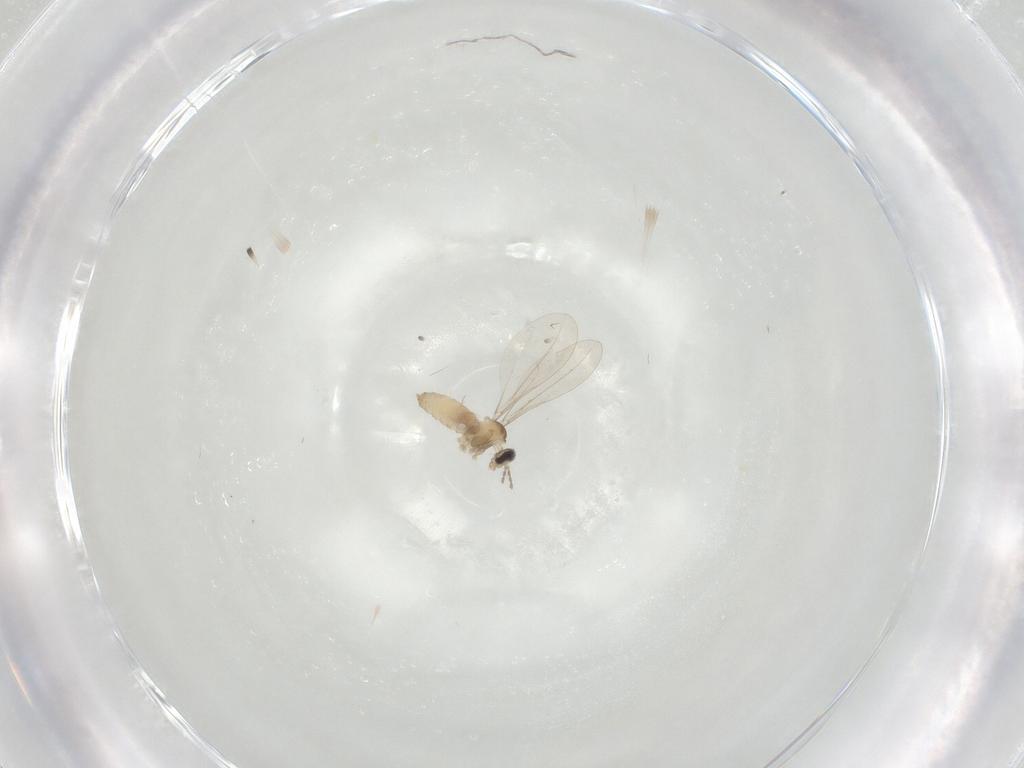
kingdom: Animalia
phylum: Arthropoda
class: Insecta
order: Diptera
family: Cecidomyiidae
